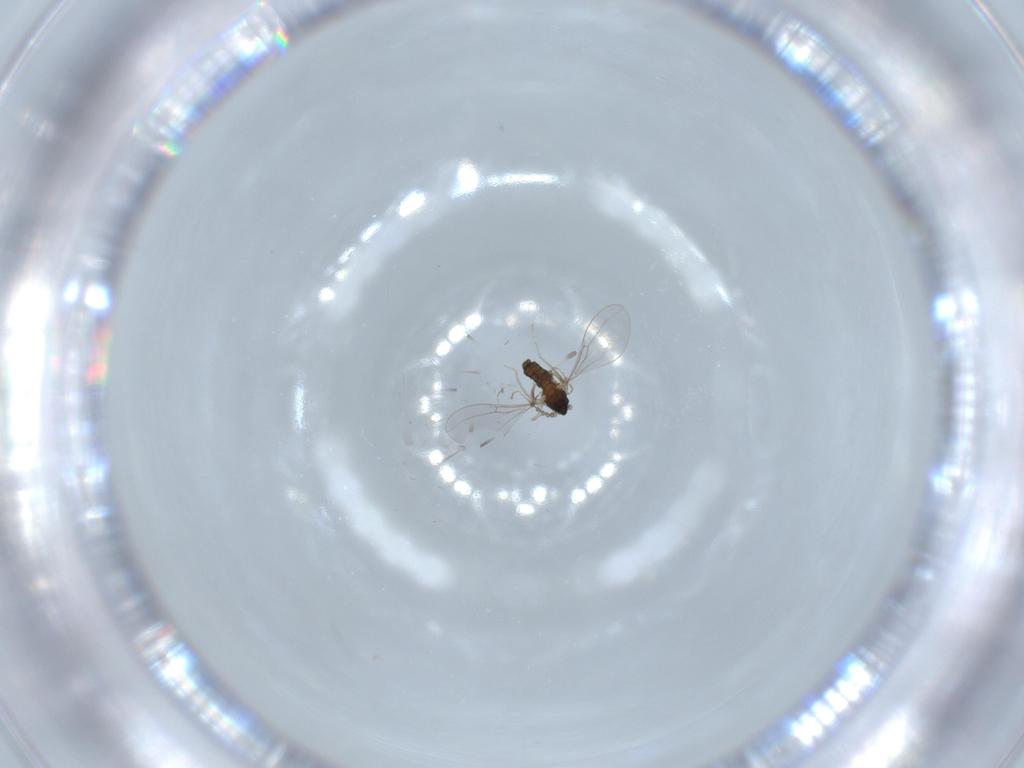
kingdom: Animalia
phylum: Arthropoda
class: Insecta
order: Diptera
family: Cecidomyiidae
